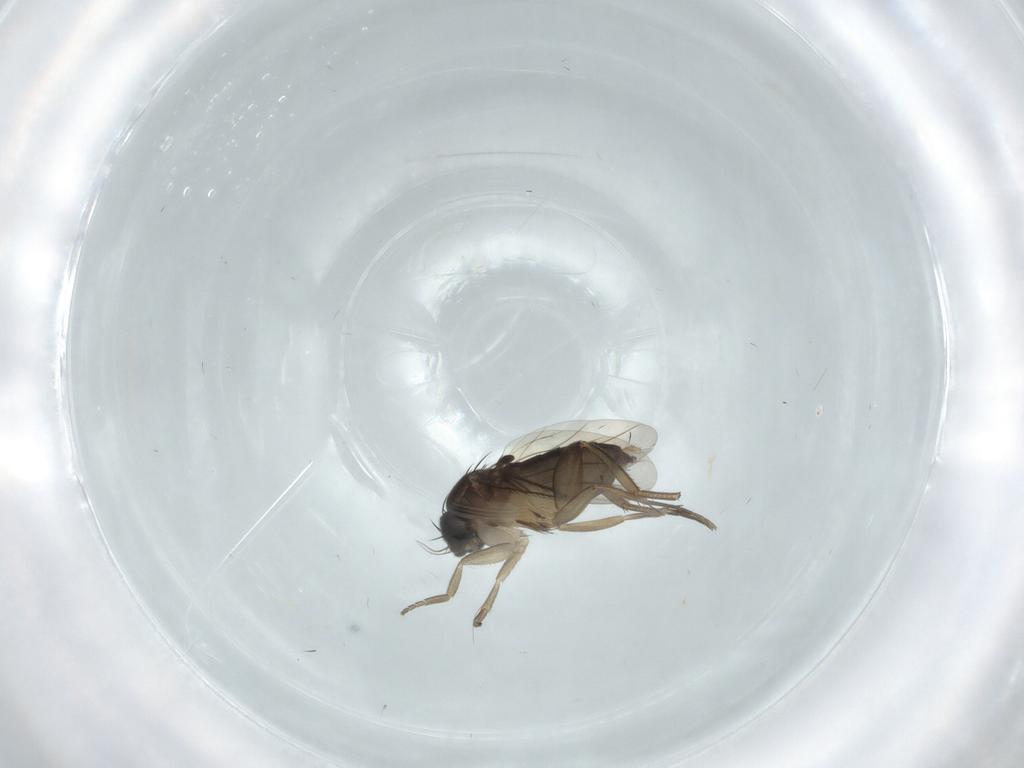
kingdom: Animalia
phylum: Arthropoda
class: Insecta
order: Diptera
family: Phoridae
